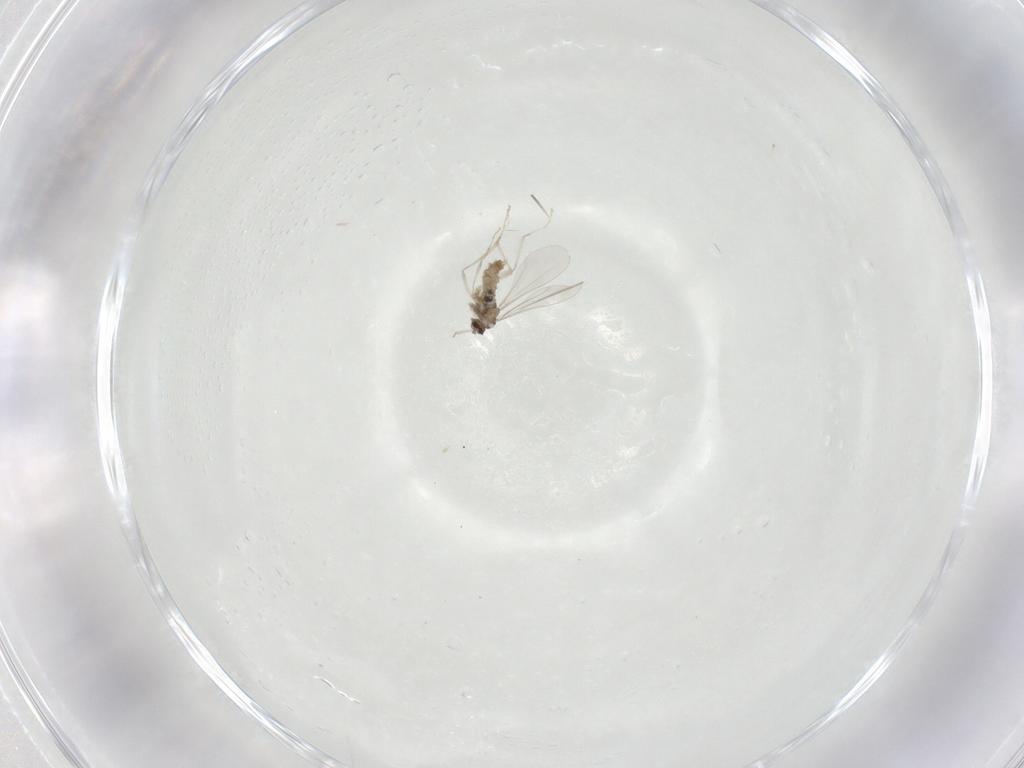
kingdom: Animalia
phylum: Arthropoda
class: Insecta
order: Diptera
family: Cecidomyiidae
